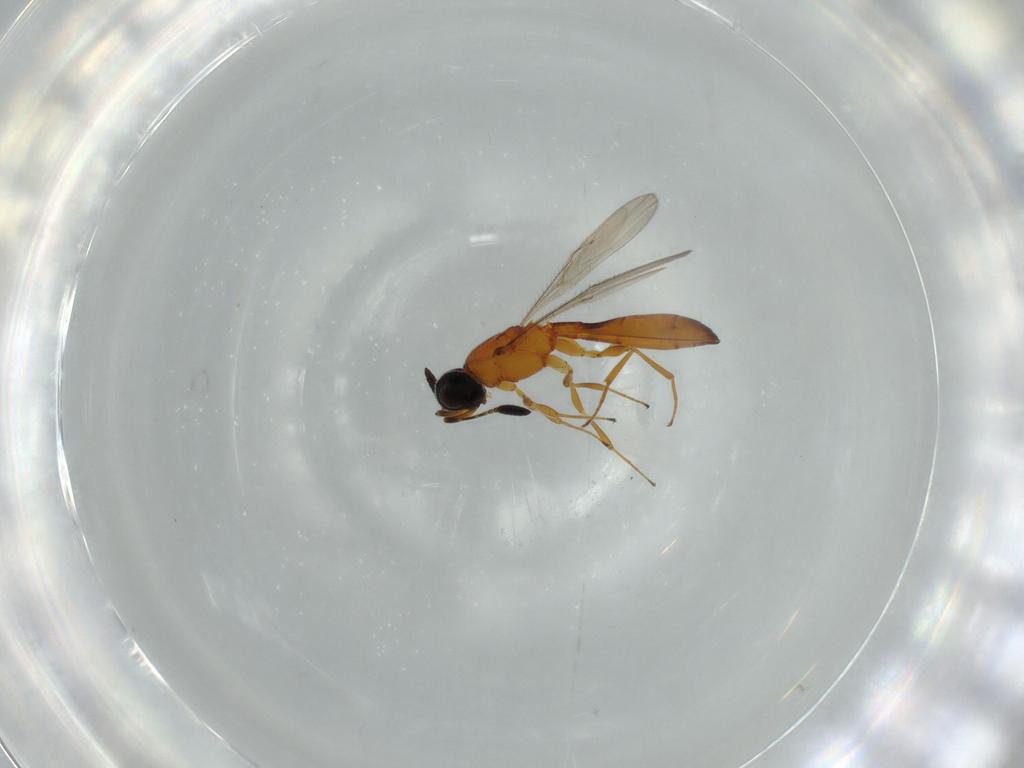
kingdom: Animalia
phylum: Arthropoda
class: Insecta
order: Hymenoptera
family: Scelionidae
